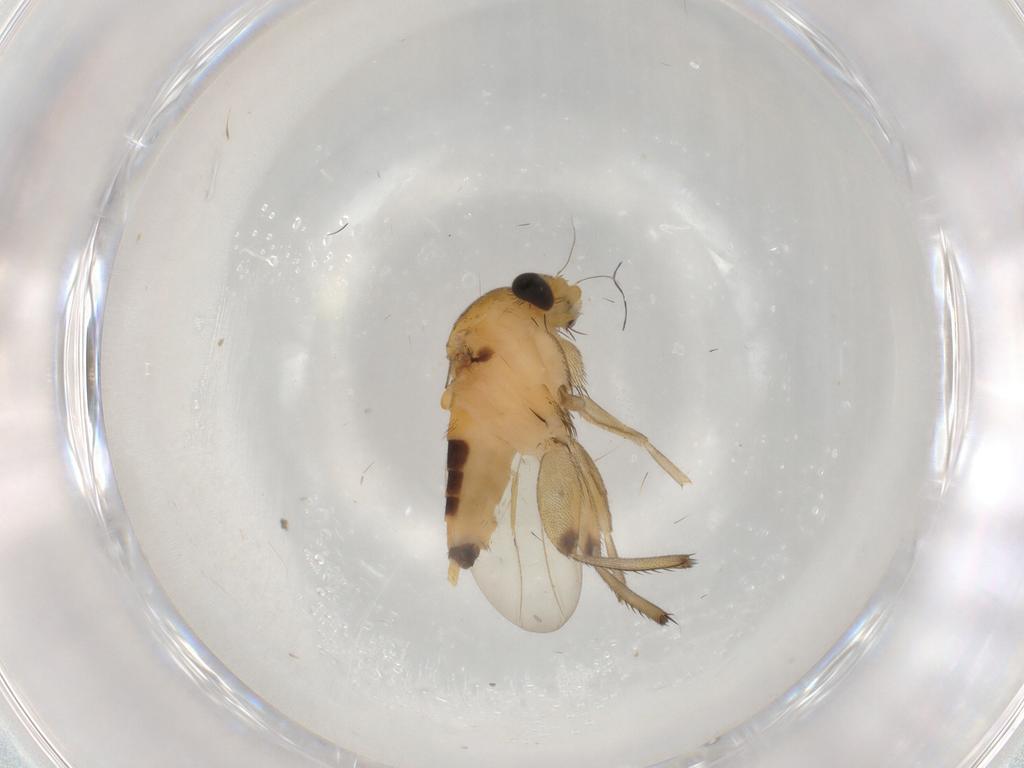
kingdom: Animalia
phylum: Arthropoda
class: Insecta
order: Diptera
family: Phoridae
